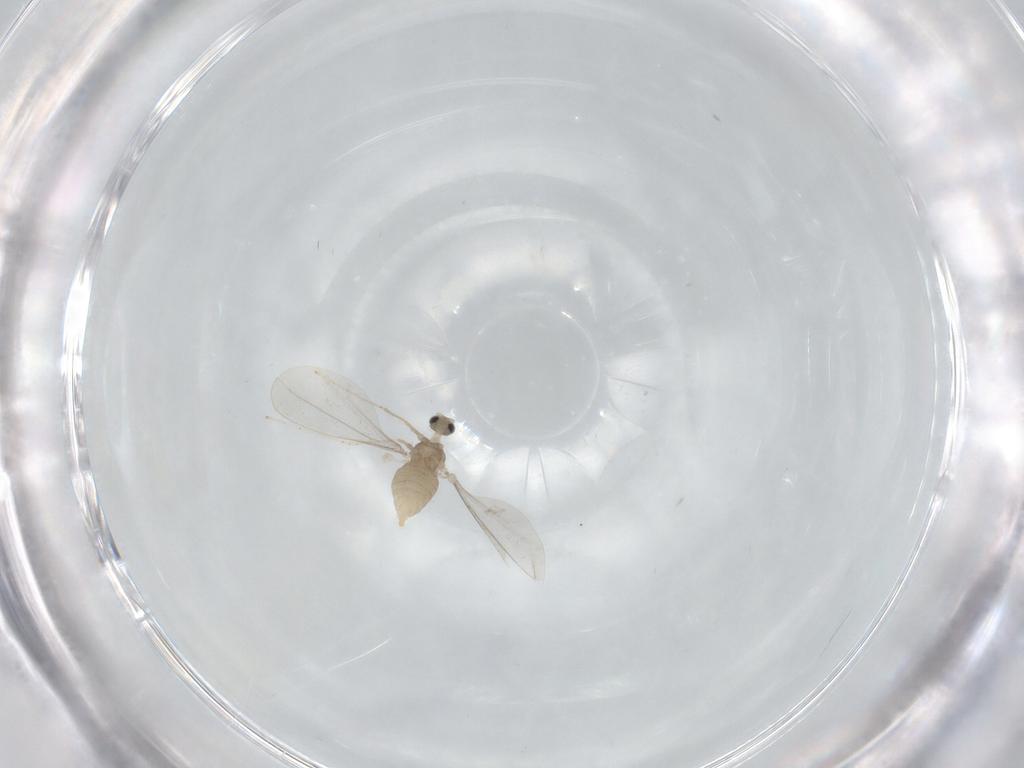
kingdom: Animalia
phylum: Arthropoda
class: Insecta
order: Diptera
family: Cecidomyiidae
